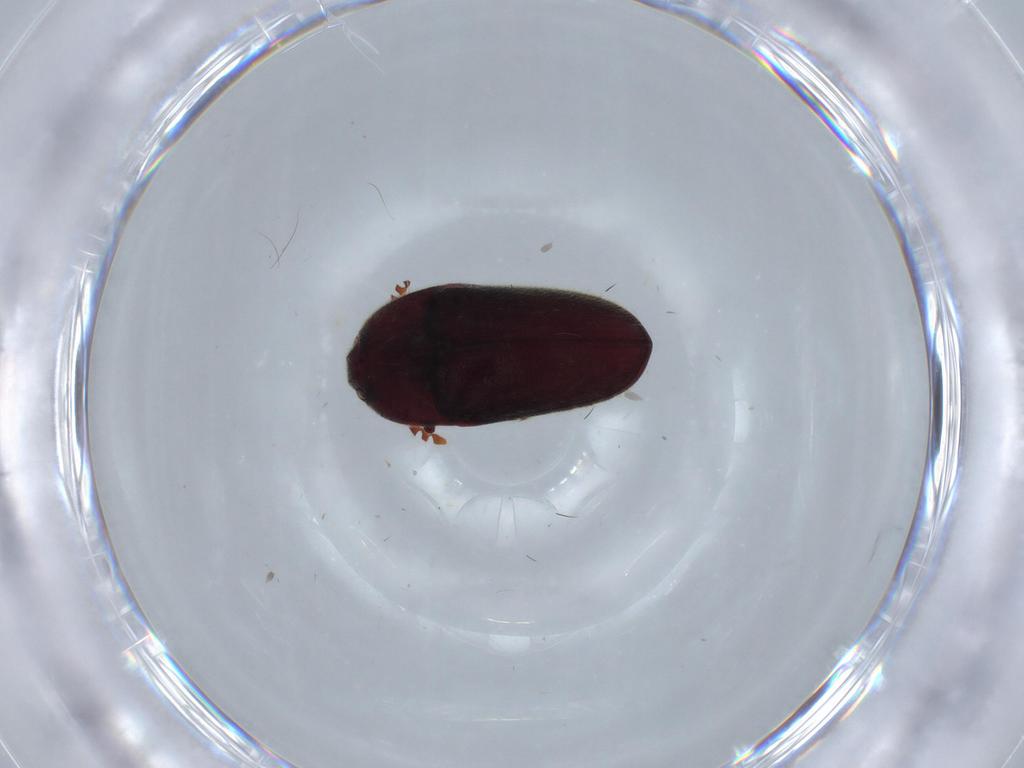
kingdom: Animalia
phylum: Arthropoda
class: Insecta
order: Coleoptera
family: Throscidae
